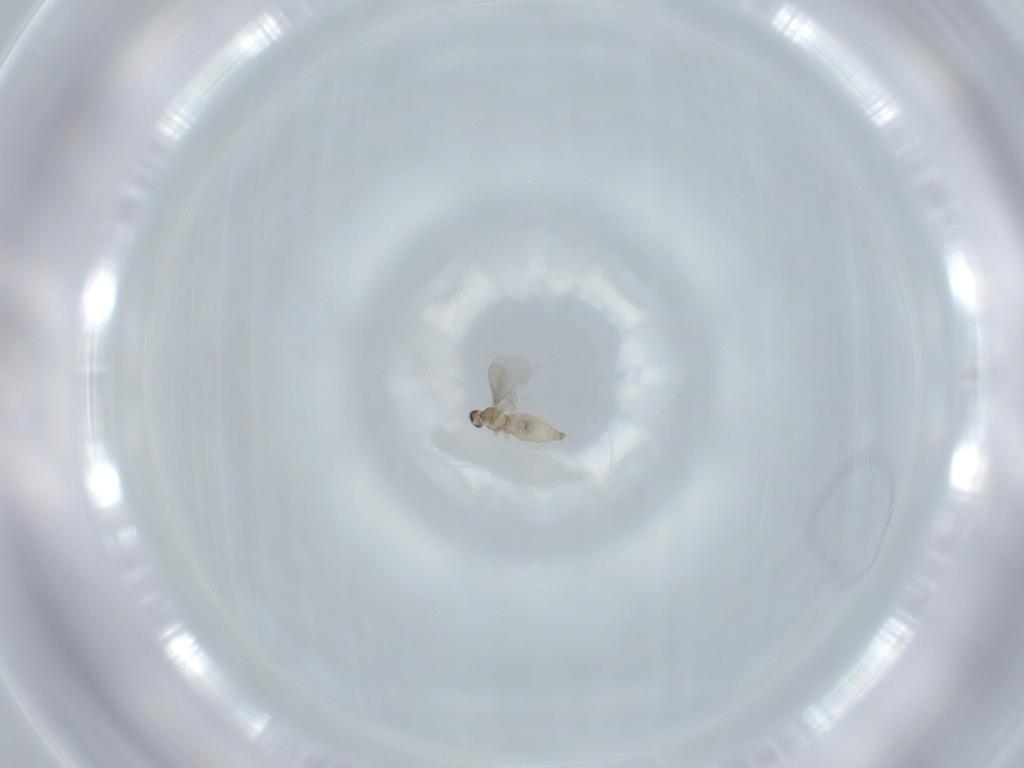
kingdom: Animalia
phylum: Arthropoda
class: Insecta
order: Diptera
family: Cecidomyiidae
